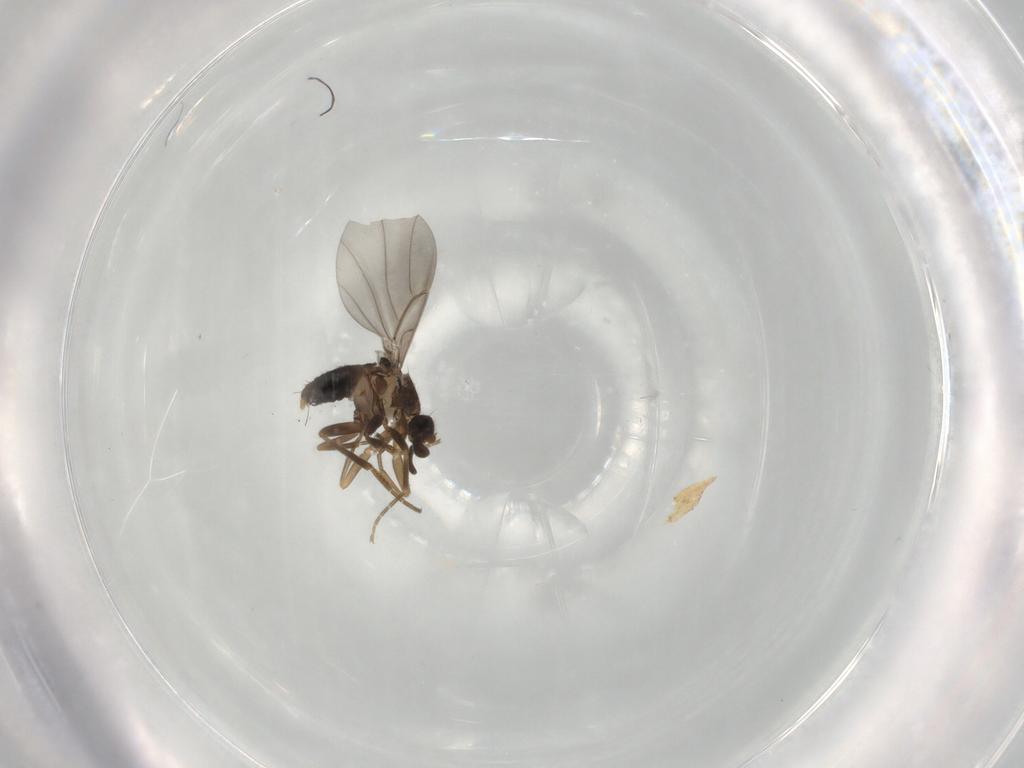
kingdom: Animalia
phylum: Arthropoda
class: Insecta
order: Diptera
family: Phoridae
